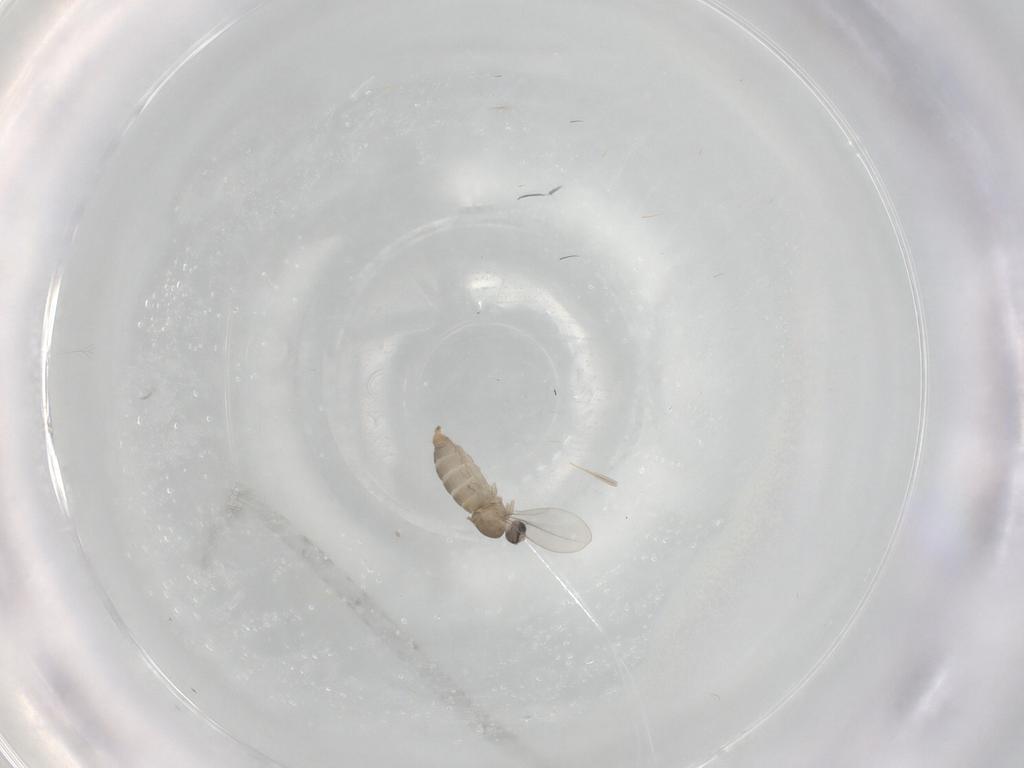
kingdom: Animalia
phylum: Arthropoda
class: Insecta
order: Diptera
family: Cecidomyiidae
